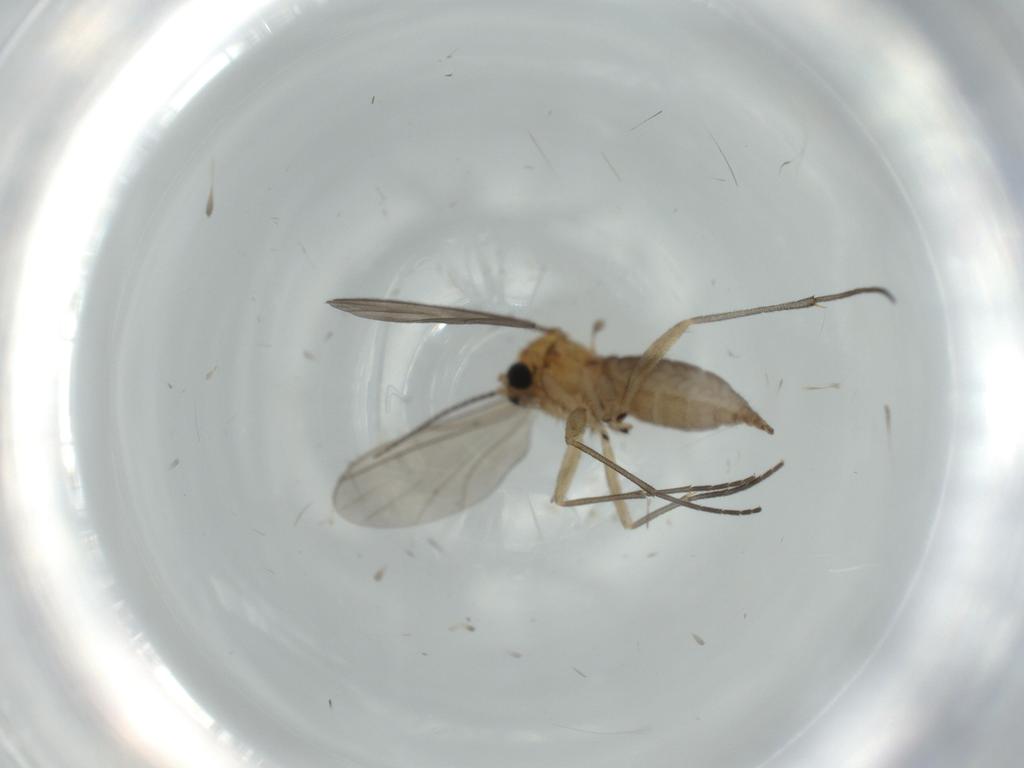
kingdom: Animalia
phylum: Arthropoda
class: Insecta
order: Diptera
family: Sciaridae
